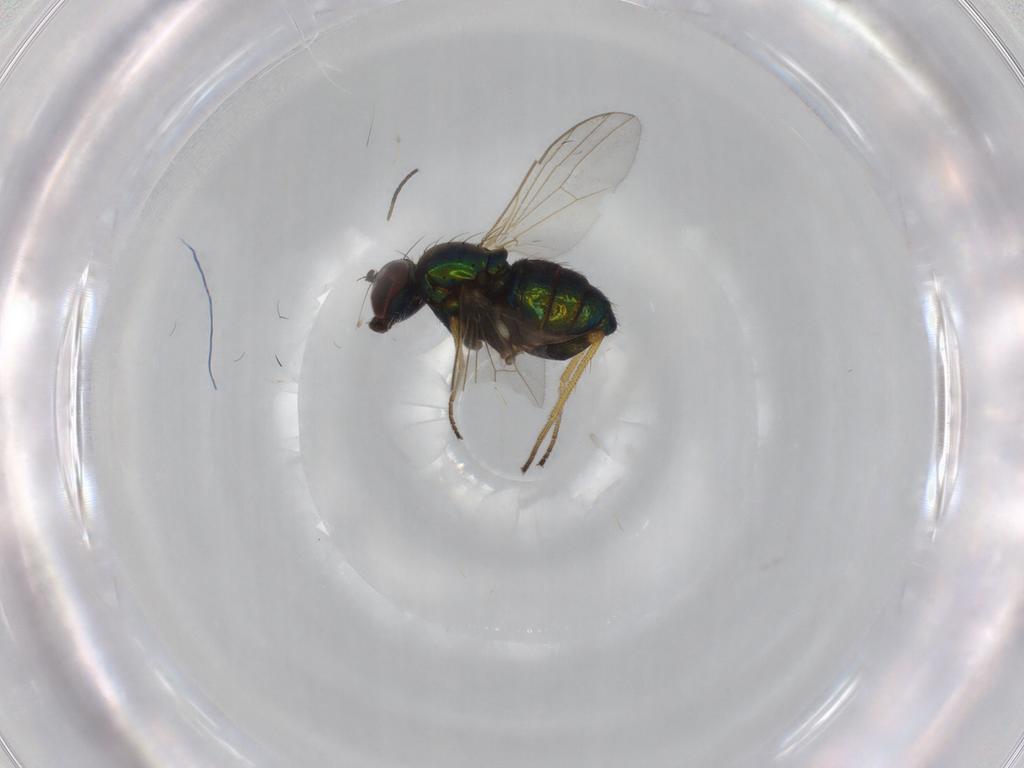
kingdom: Animalia
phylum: Arthropoda
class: Insecta
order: Diptera
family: Dolichopodidae
